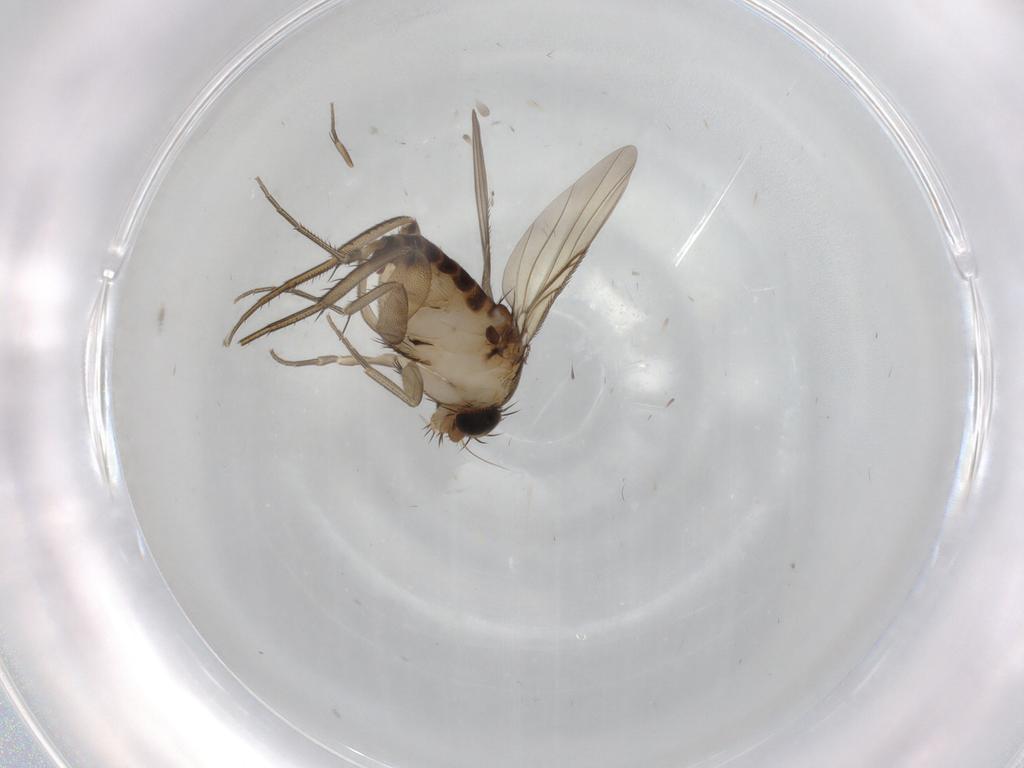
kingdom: Animalia
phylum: Arthropoda
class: Insecta
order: Diptera
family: Phoridae
